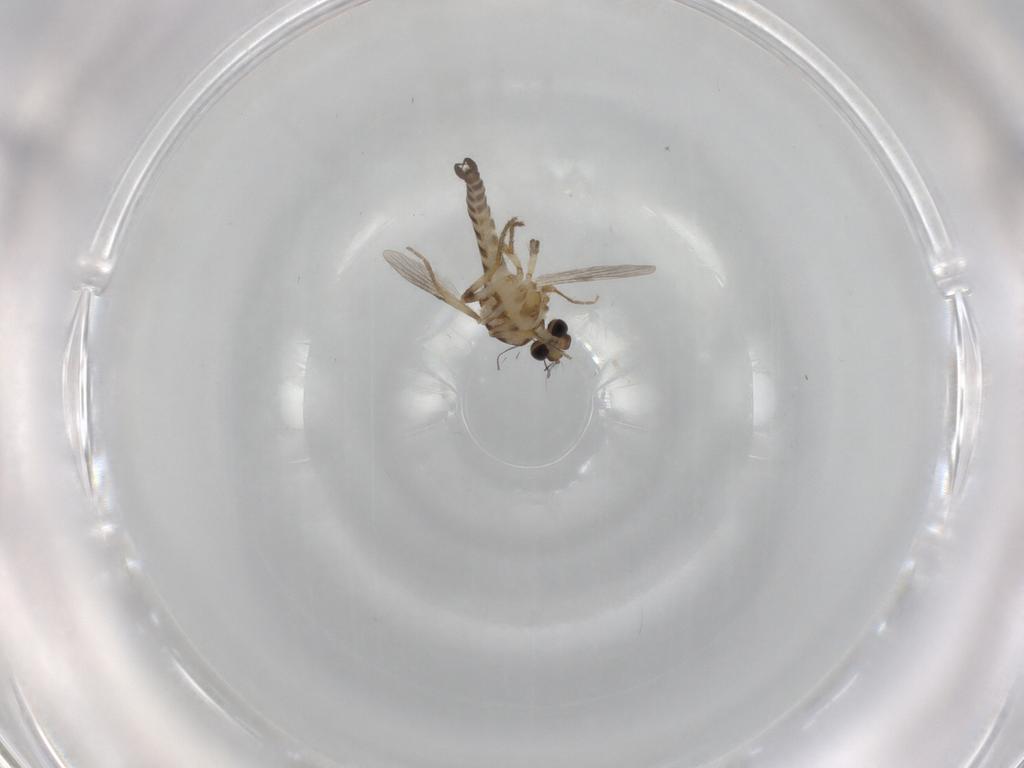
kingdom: Animalia
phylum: Arthropoda
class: Insecta
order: Diptera
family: Ceratopogonidae
